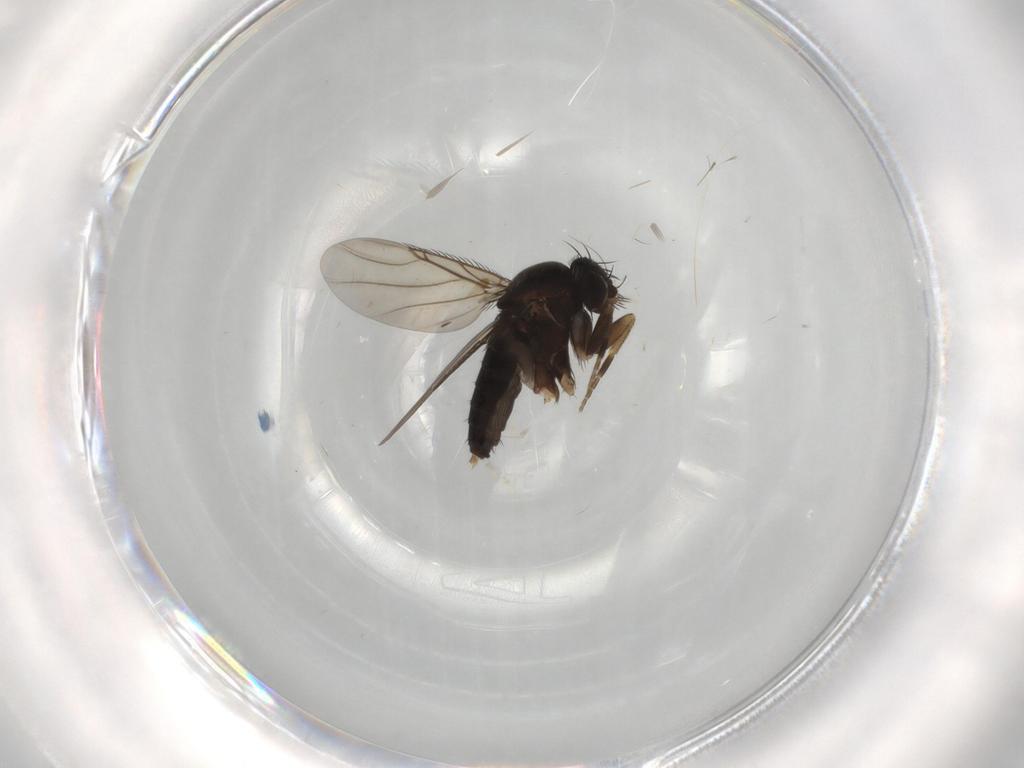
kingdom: Animalia
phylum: Arthropoda
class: Insecta
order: Diptera
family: Phoridae
